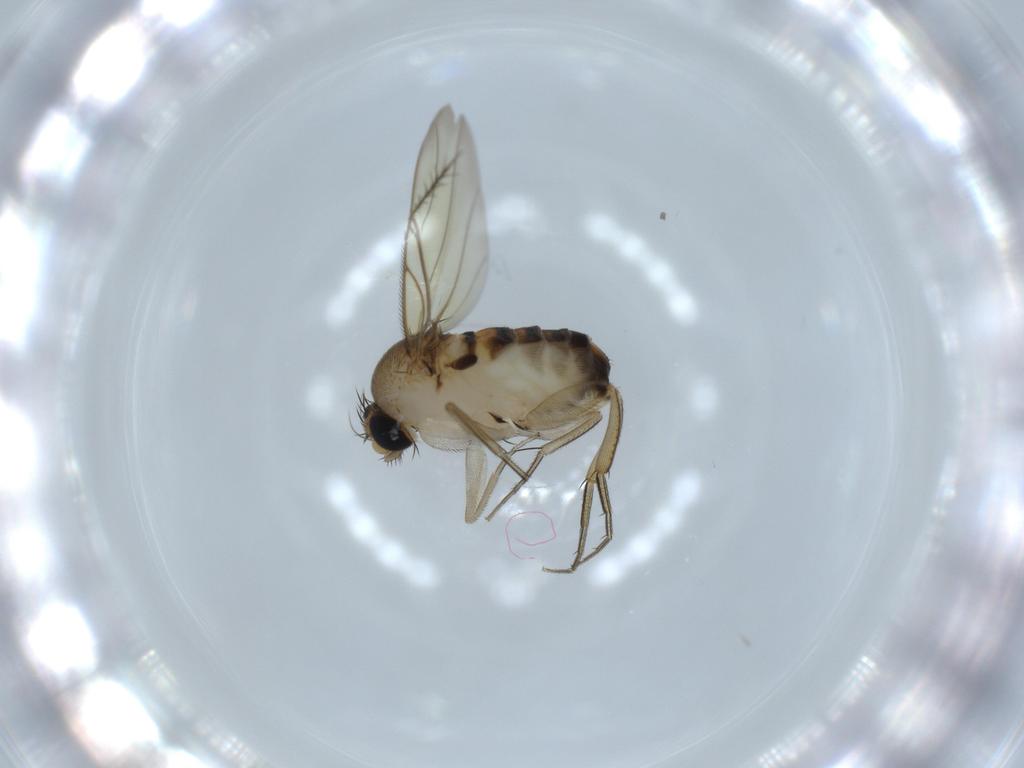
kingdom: Animalia
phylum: Arthropoda
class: Insecta
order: Diptera
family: Phoridae
